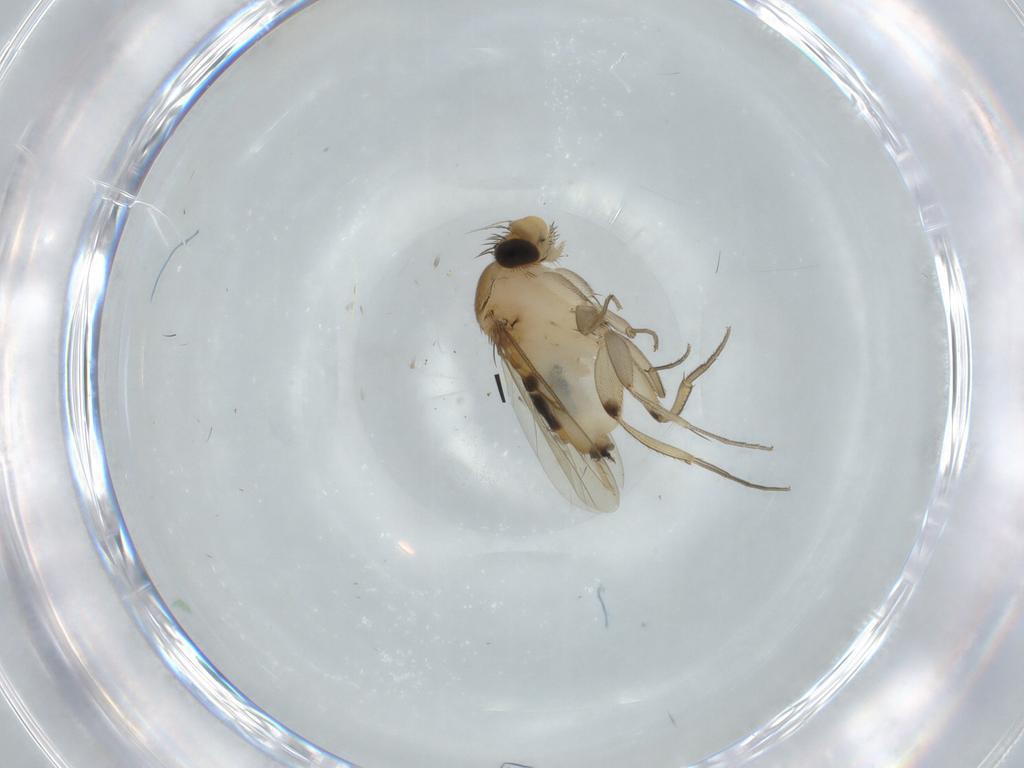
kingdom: Animalia
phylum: Arthropoda
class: Insecta
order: Diptera
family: Phoridae
